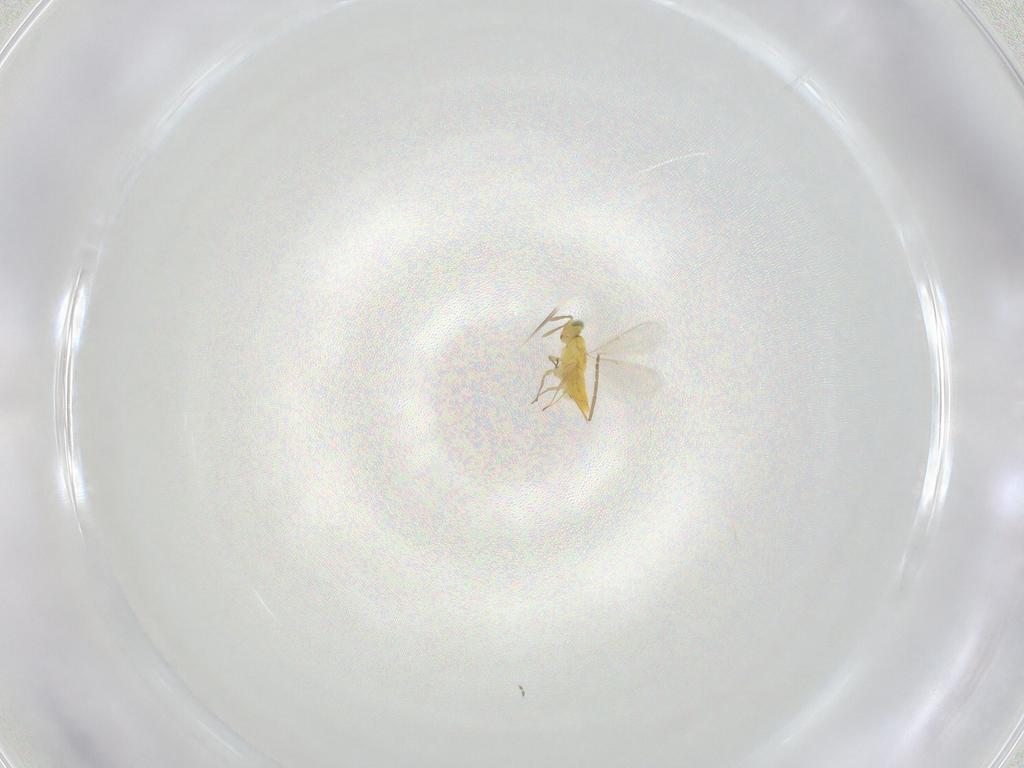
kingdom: Animalia
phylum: Arthropoda
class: Insecta
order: Hymenoptera
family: Aphelinidae
